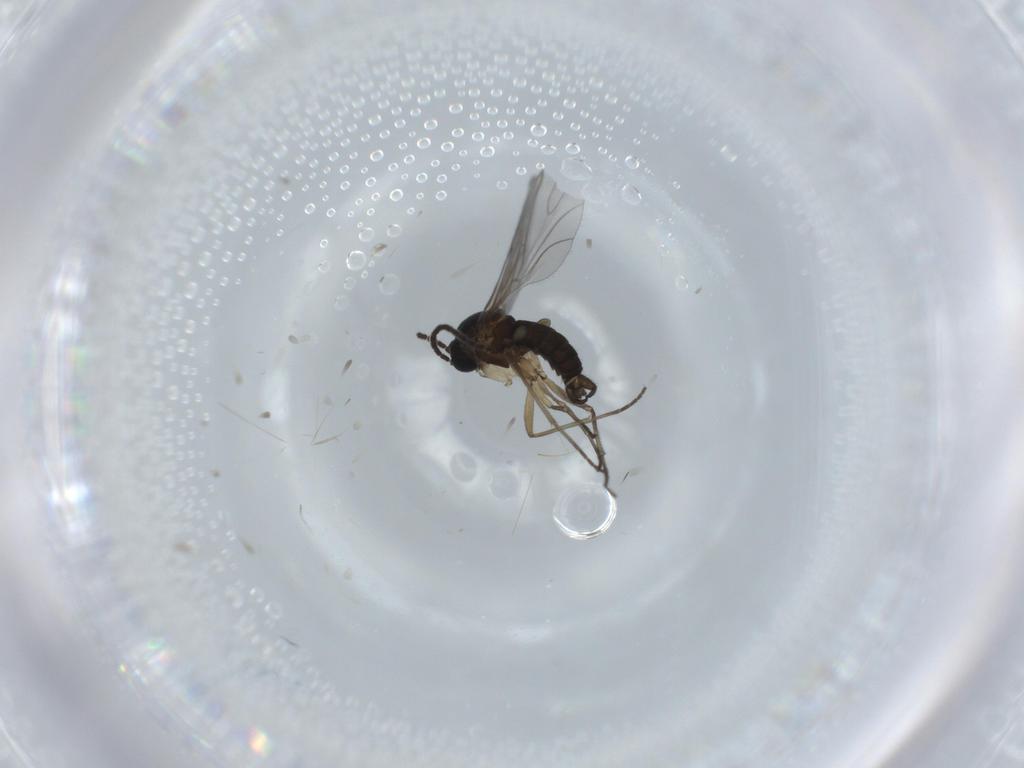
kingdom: Animalia
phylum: Arthropoda
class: Insecta
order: Diptera
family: Sciaridae
